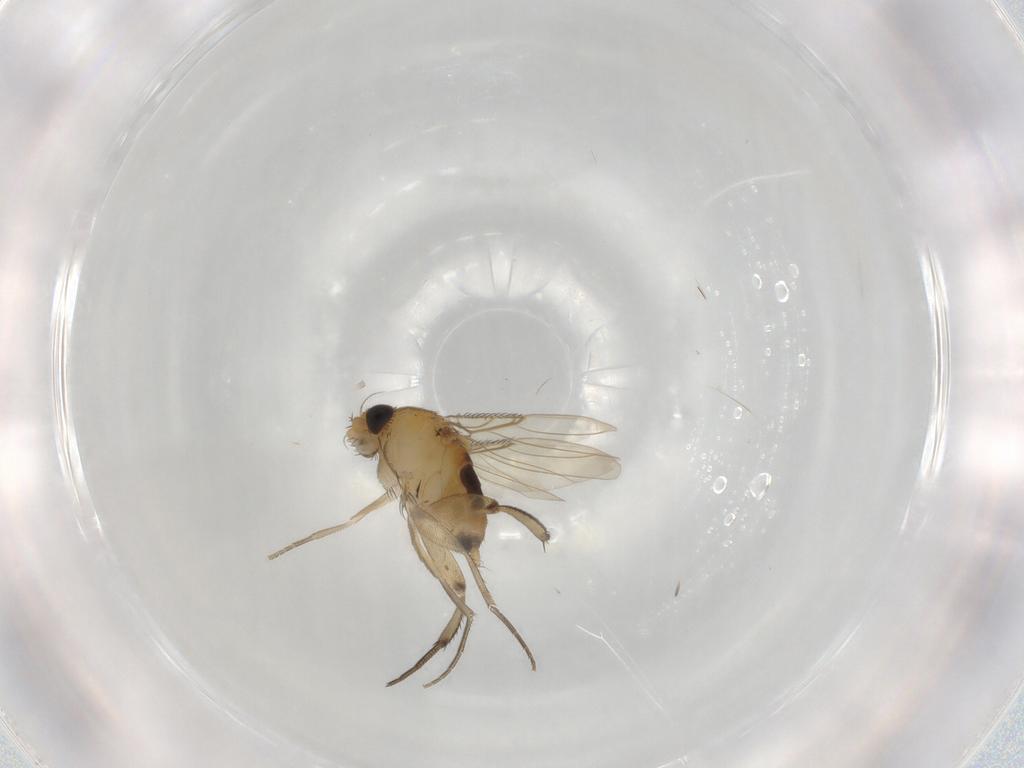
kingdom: Animalia
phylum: Arthropoda
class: Insecta
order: Diptera
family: Phoridae
